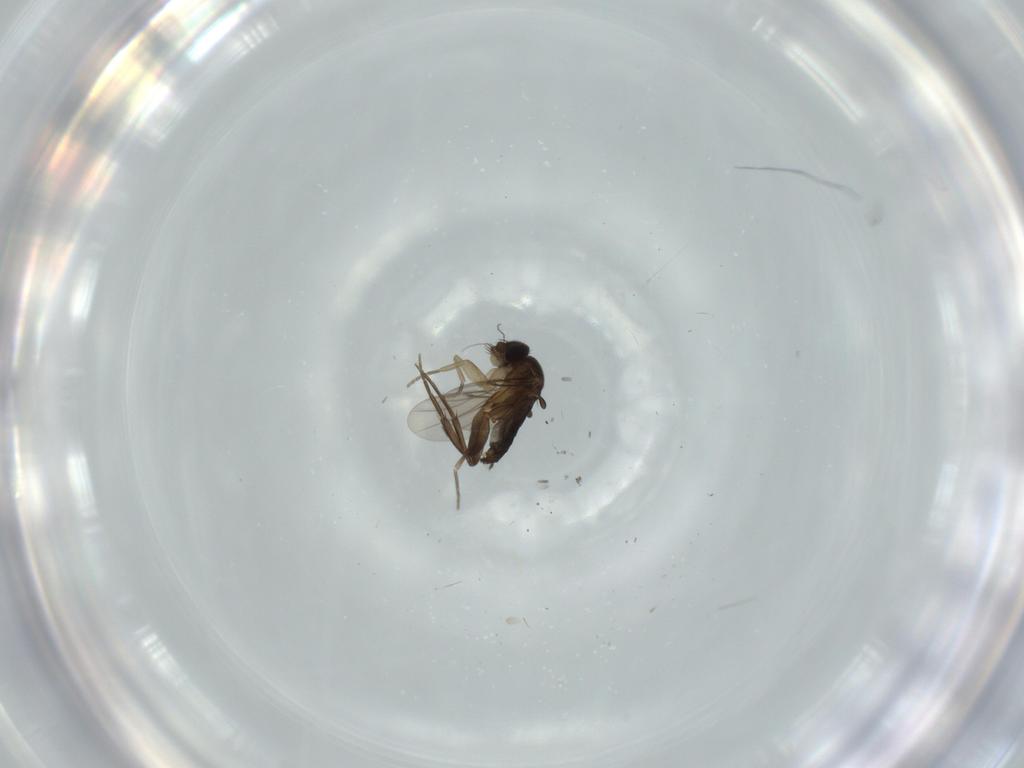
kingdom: Animalia
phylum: Arthropoda
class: Insecta
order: Diptera
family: Phoridae
